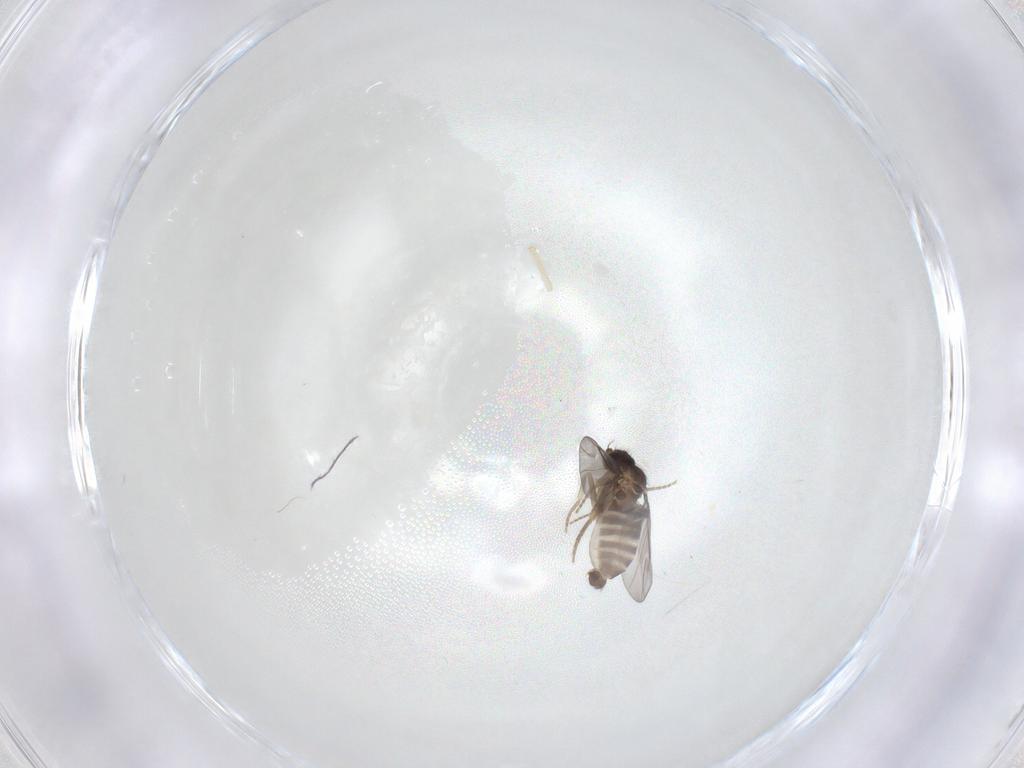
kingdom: Animalia
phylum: Arthropoda
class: Insecta
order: Diptera
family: Chironomidae
